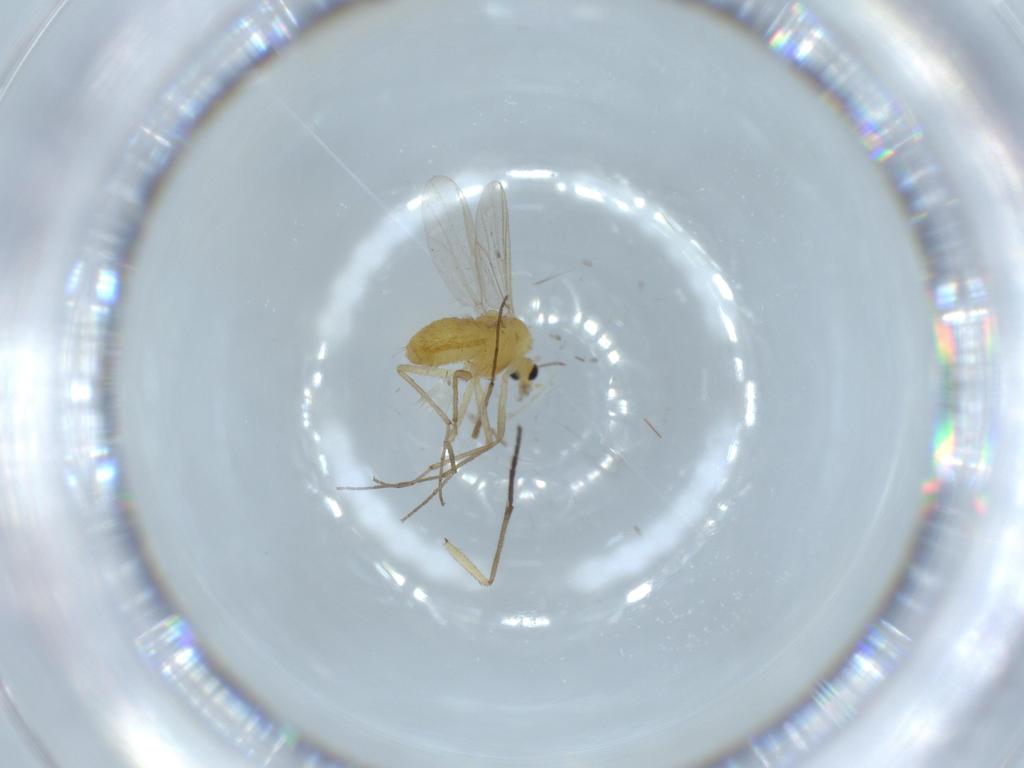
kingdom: Animalia
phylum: Arthropoda
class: Insecta
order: Diptera
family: Chironomidae
